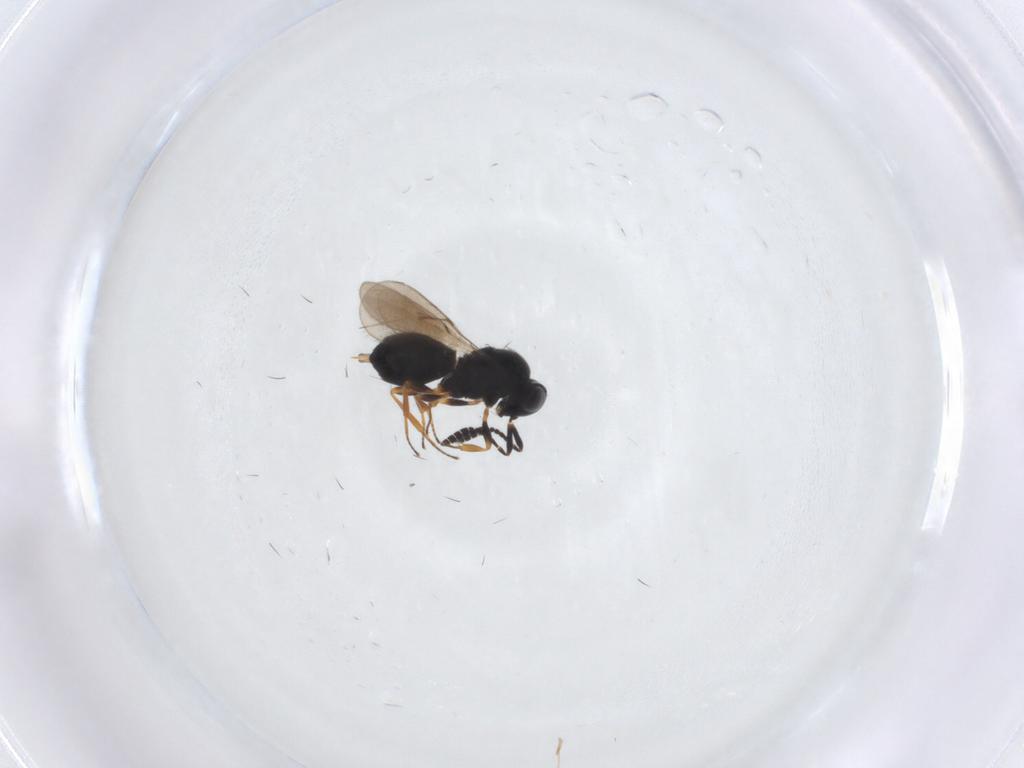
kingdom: Animalia
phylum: Arthropoda
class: Insecta
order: Hymenoptera
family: Scelionidae
